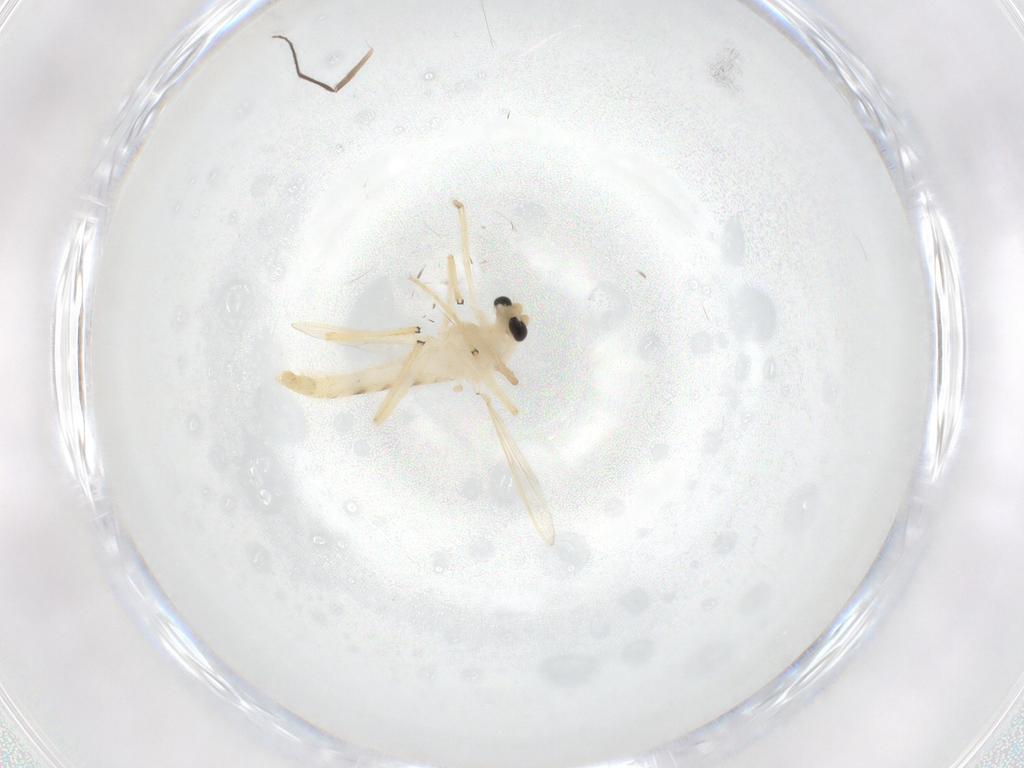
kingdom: Animalia
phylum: Arthropoda
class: Insecta
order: Diptera
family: Chironomidae
